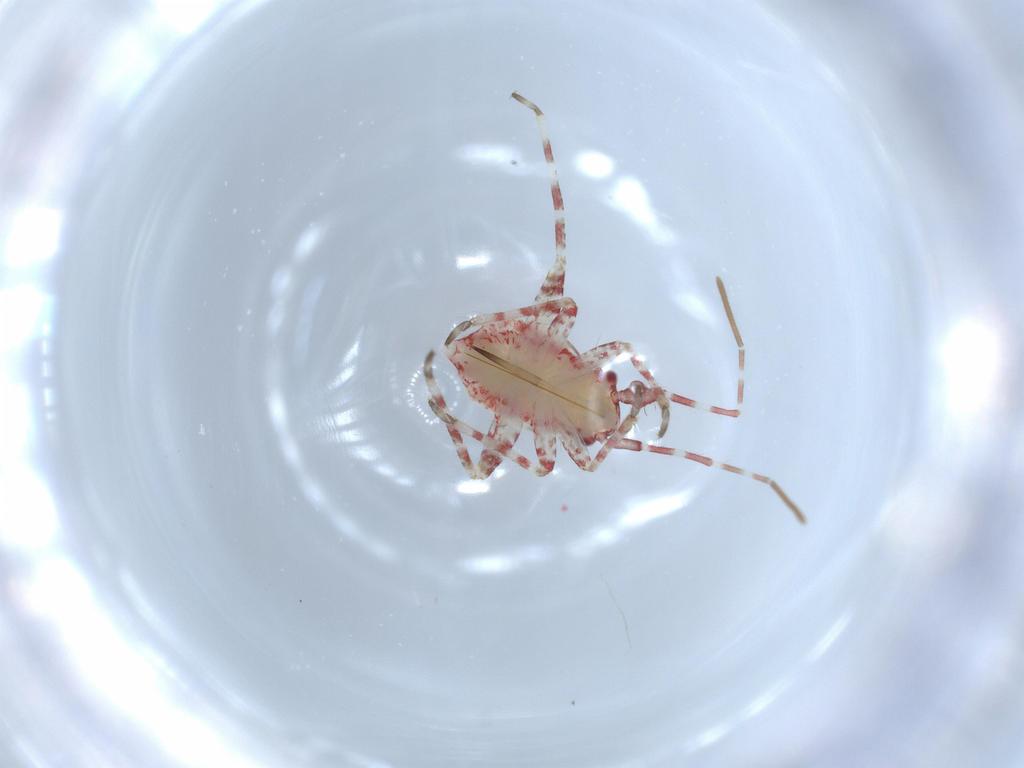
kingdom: Animalia
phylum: Arthropoda
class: Insecta
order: Hemiptera
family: Miridae
